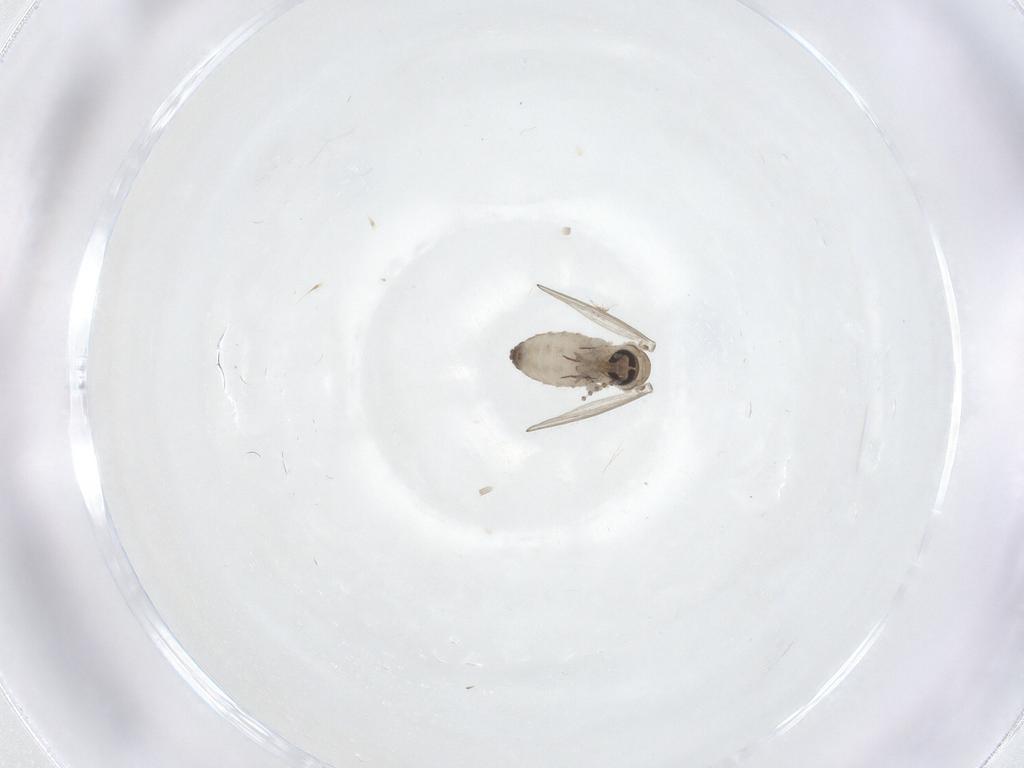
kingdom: Animalia
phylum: Arthropoda
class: Insecta
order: Diptera
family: Psychodidae
